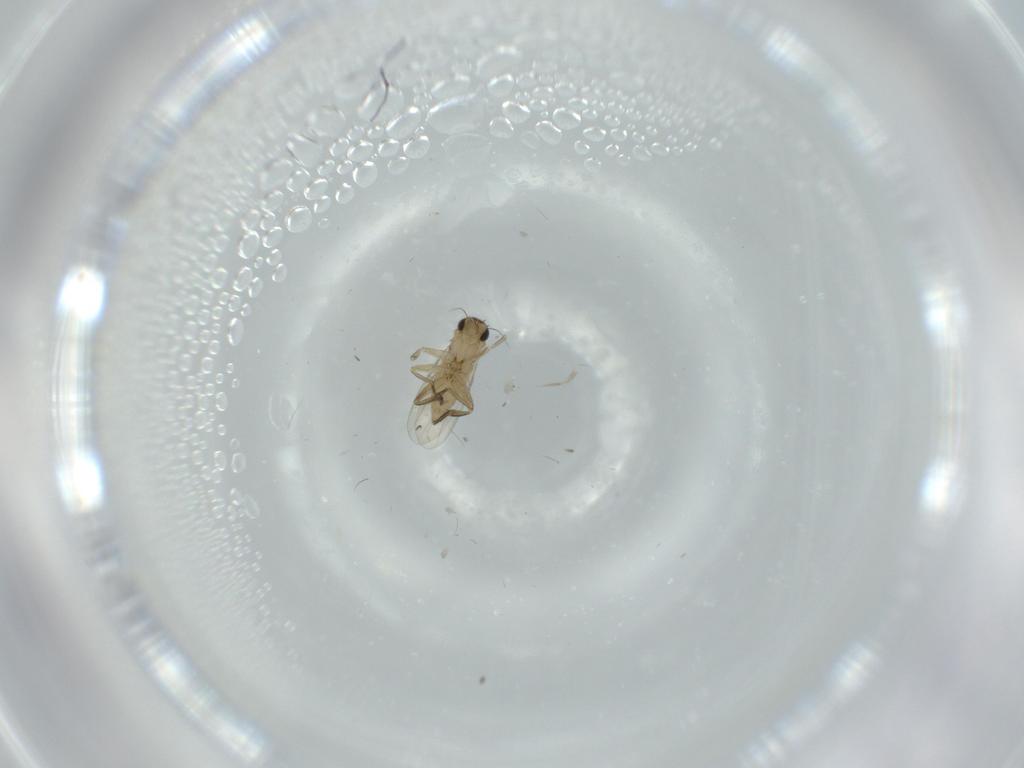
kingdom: Animalia
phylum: Arthropoda
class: Insecta
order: Diptera
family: Phoridae
